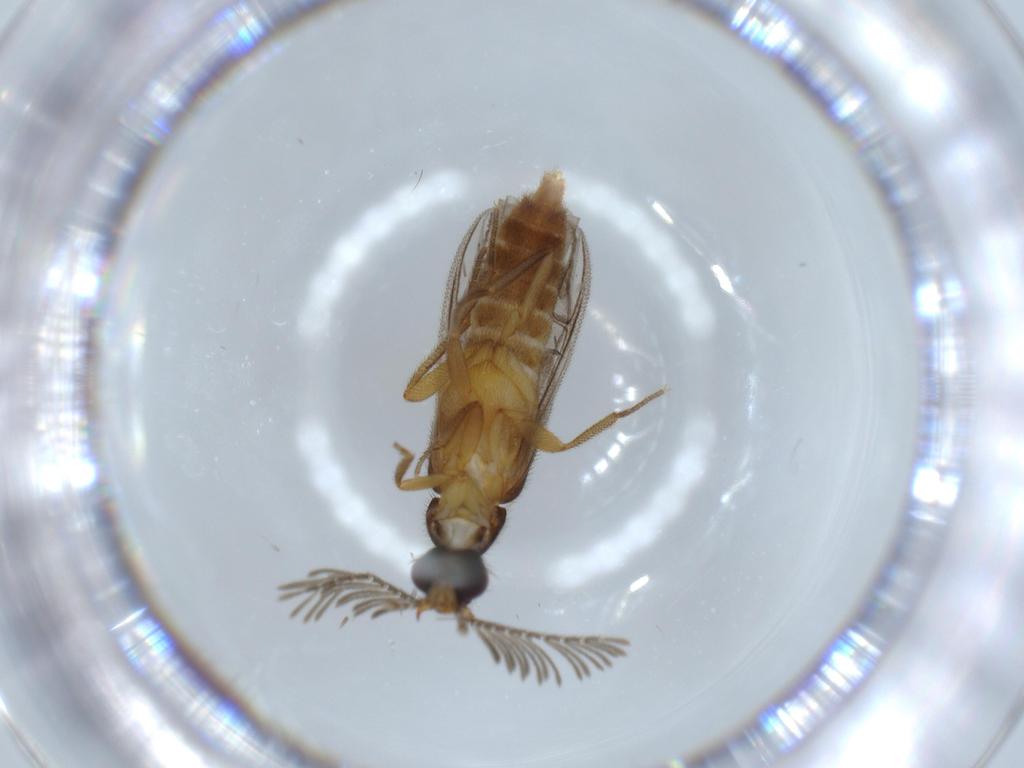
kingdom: Animalia
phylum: Arthropoda
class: Insecta
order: Coleoptera
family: Chrysomelidae
